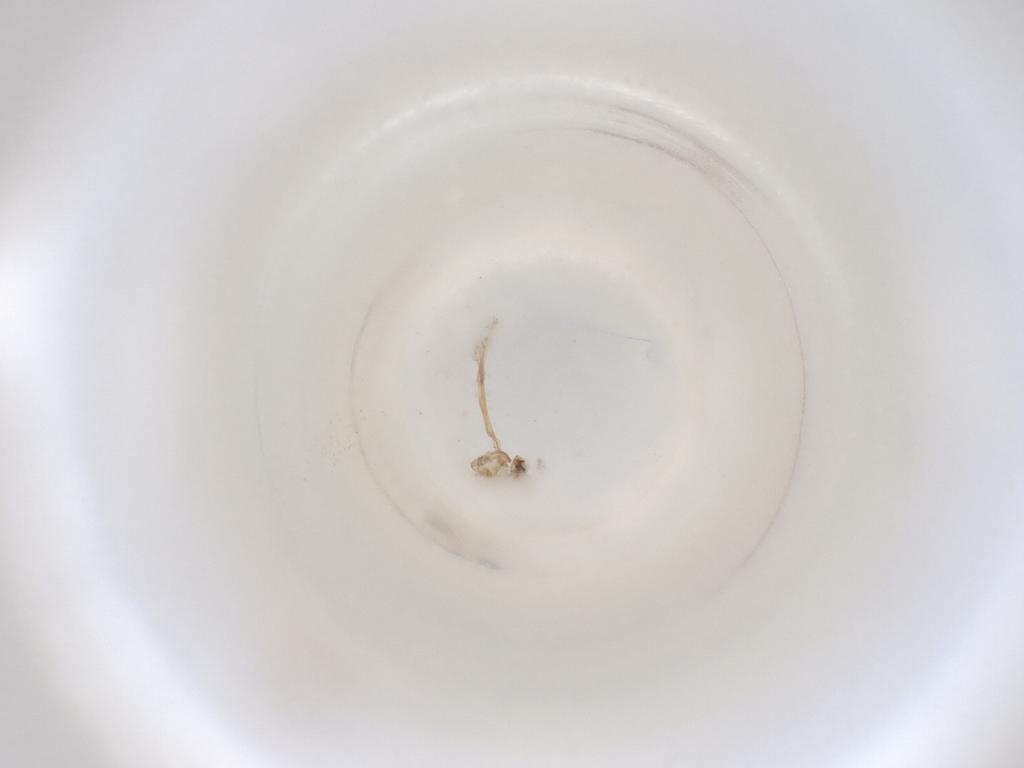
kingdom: Animalia
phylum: Arthropoda
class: Insecta
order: Diptera
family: Cecidomyiidae
